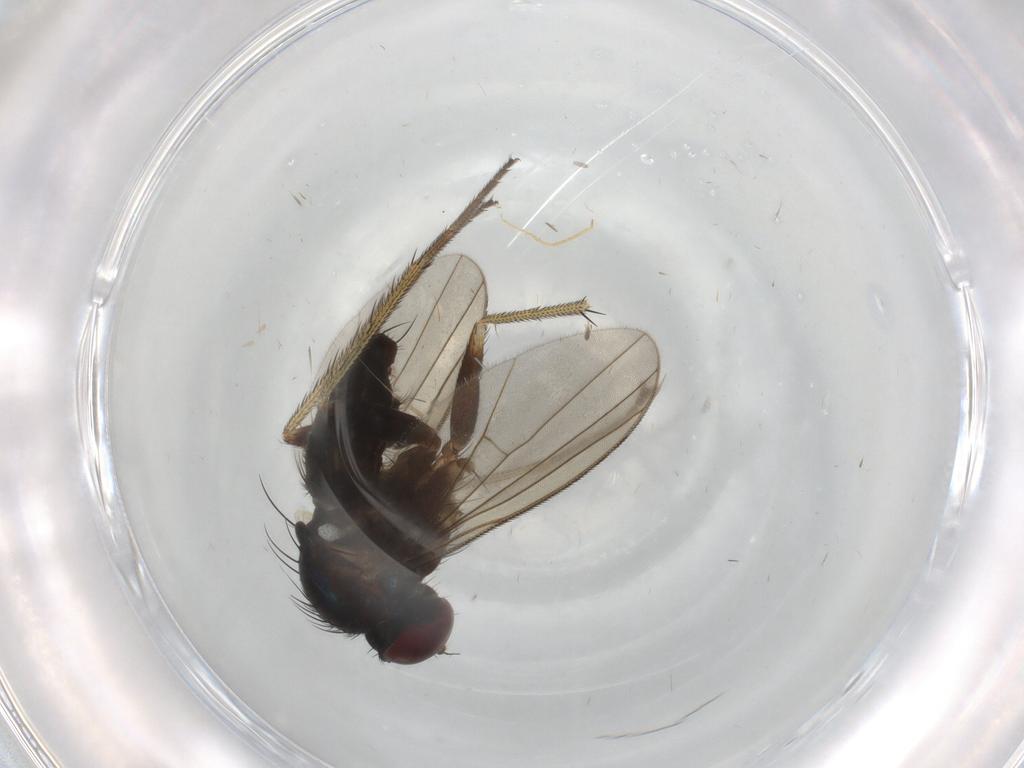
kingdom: Animalia
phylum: Arthropoda
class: Insecta
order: Diptera
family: Dolichopodidae
